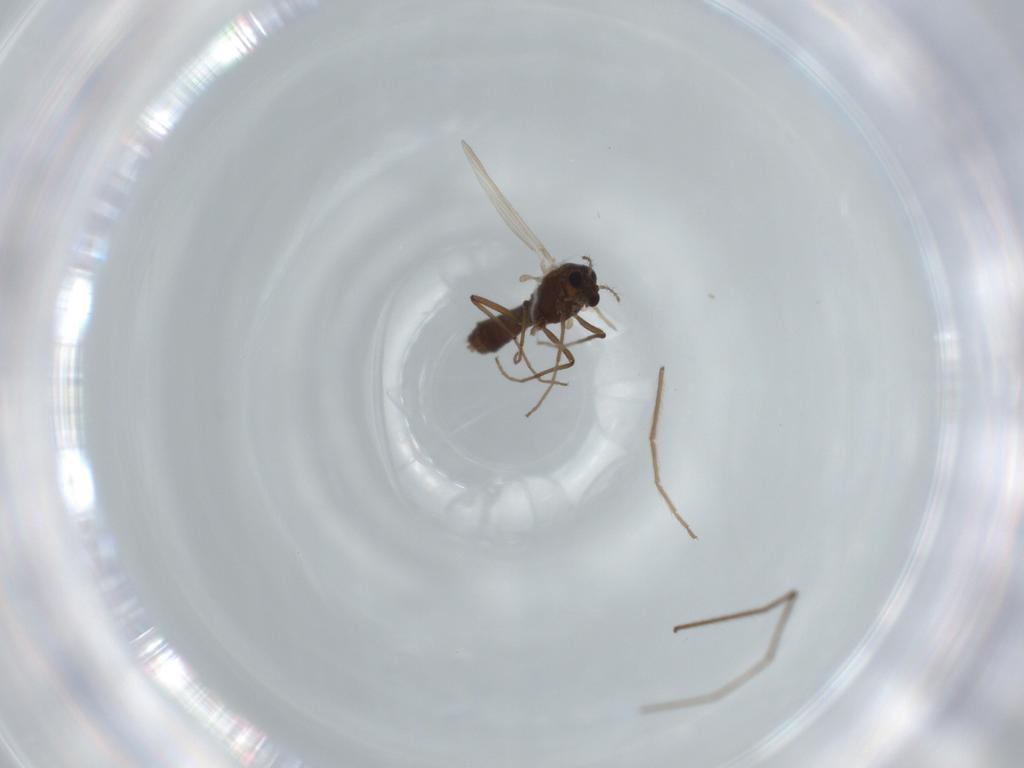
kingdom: Animalia
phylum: Arthropoda
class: Insecta
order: Diptera
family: Chironomidae
